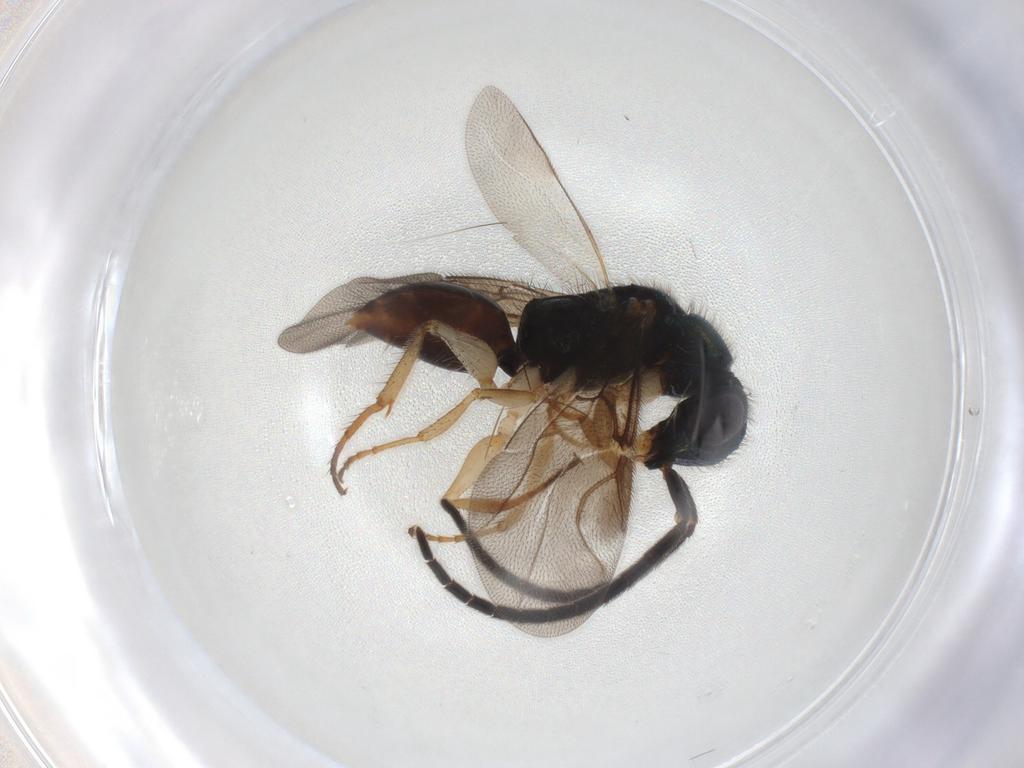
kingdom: Animalia
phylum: Arthropoda
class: Insecta
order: Hymenoptera
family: Chrysididae
